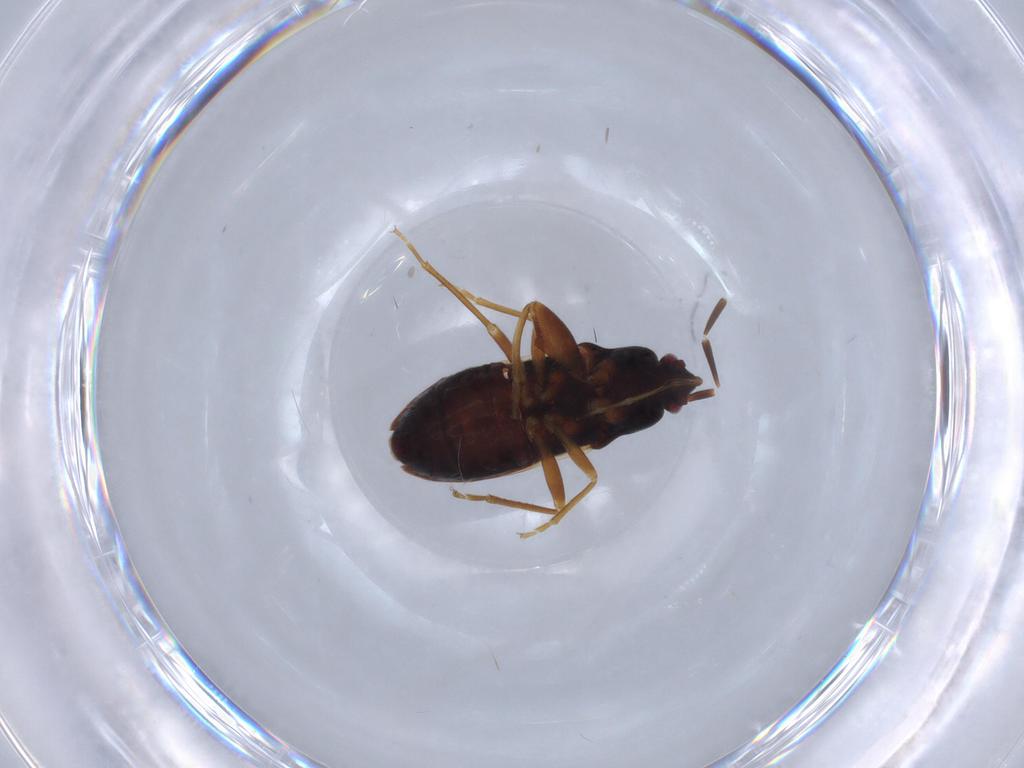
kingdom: Animalia
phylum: Arthropoda
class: Insecta
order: Hemiptera
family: Rhyparochromidae
